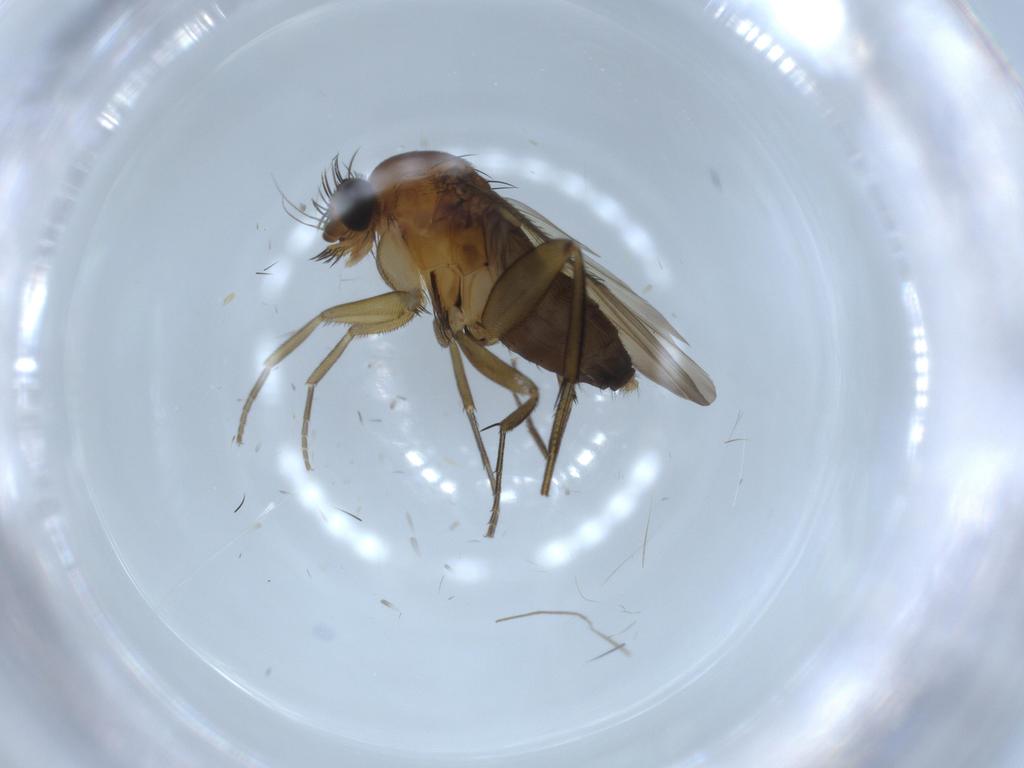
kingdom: Animalia
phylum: Arthropoda
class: Insecta
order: Diptera
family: Phoridae
